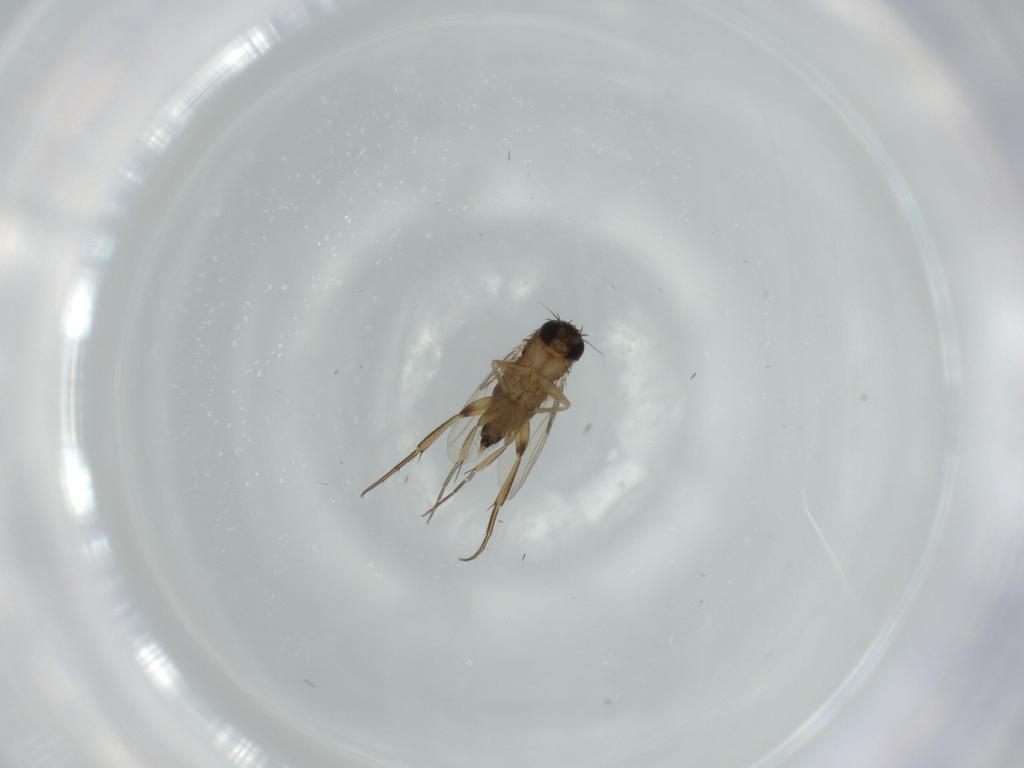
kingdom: Animalia
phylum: Arthropoda
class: Insecta
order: Diptera
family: Phoridae
